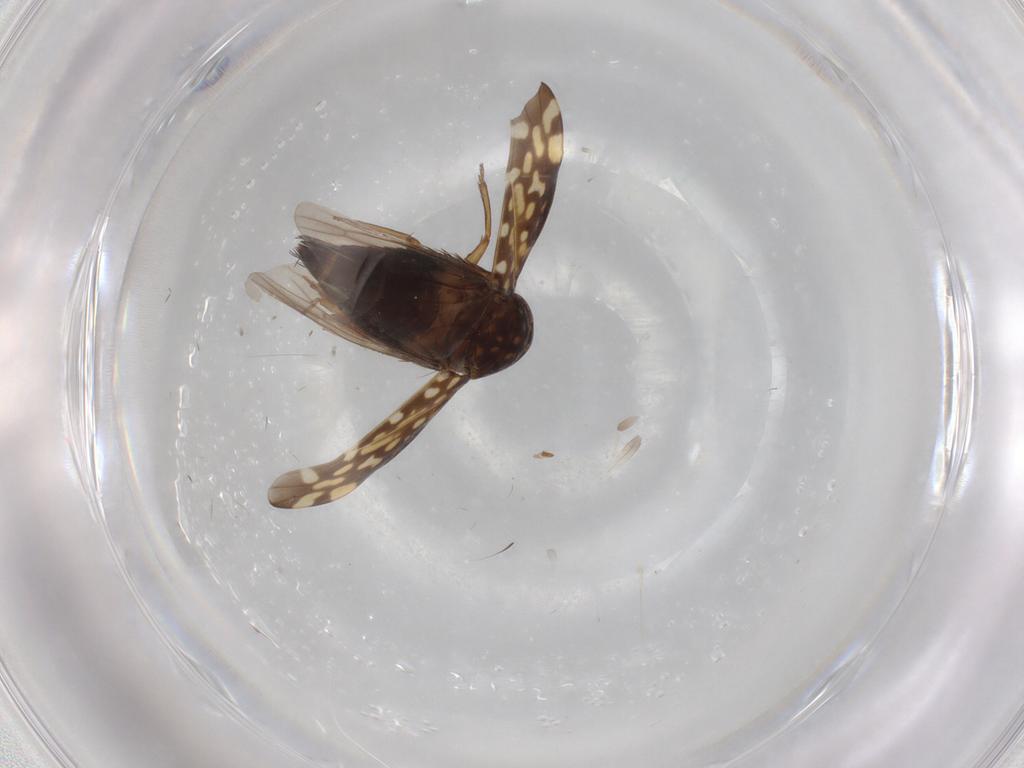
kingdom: Animalia
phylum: Arthropoda
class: Insecta
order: Hemiptera
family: Cicadellidae
